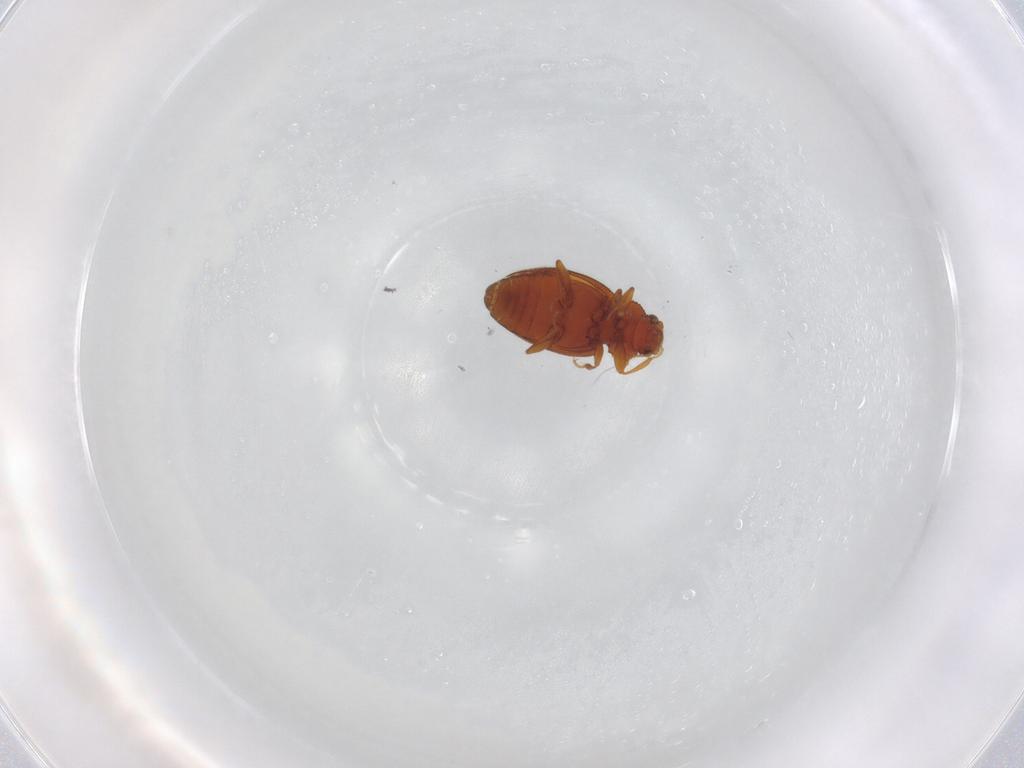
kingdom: Animalia
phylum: Arthropoda
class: Insecta
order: Coleoptera
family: Latridiidae
